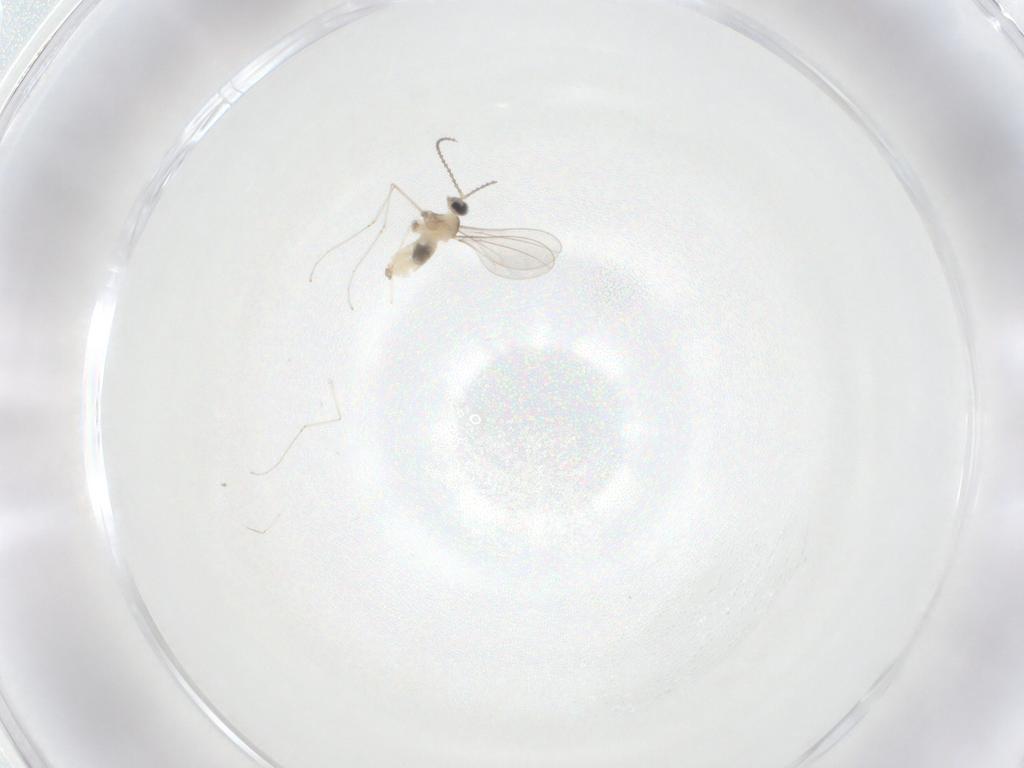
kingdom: Animalia
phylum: Arthropoda
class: Insecta
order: Diptera
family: Cecidomyiidae
